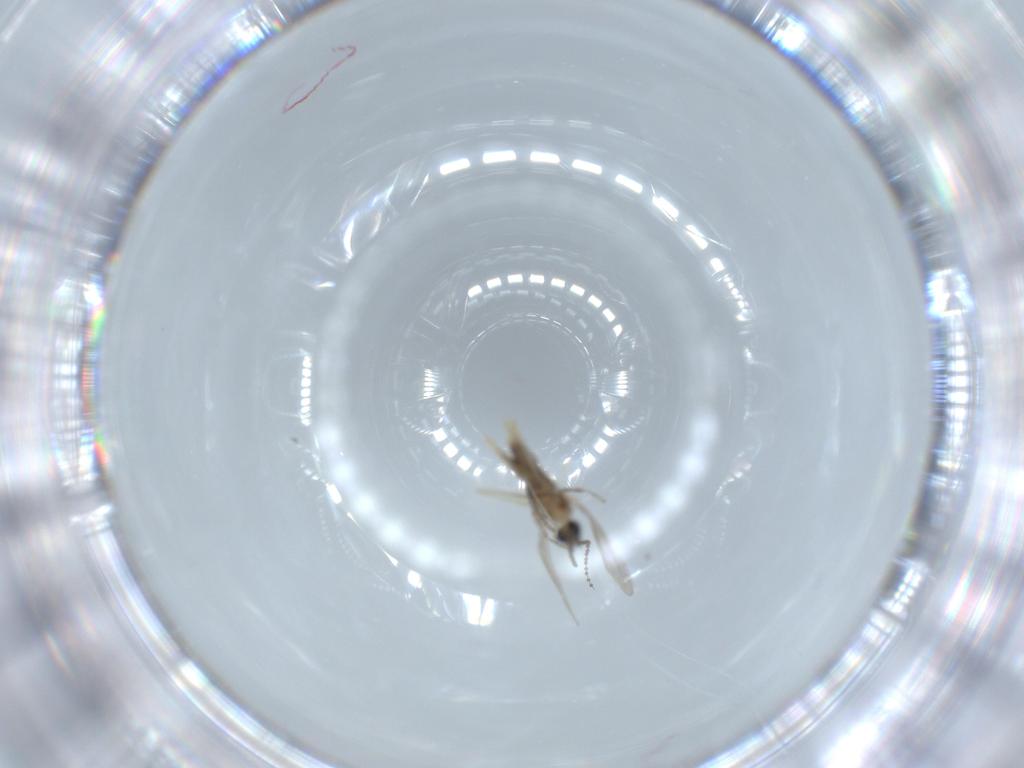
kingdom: Animalia
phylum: Arthropoda
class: Insecta
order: Diptera
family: Cecidomyiidae
